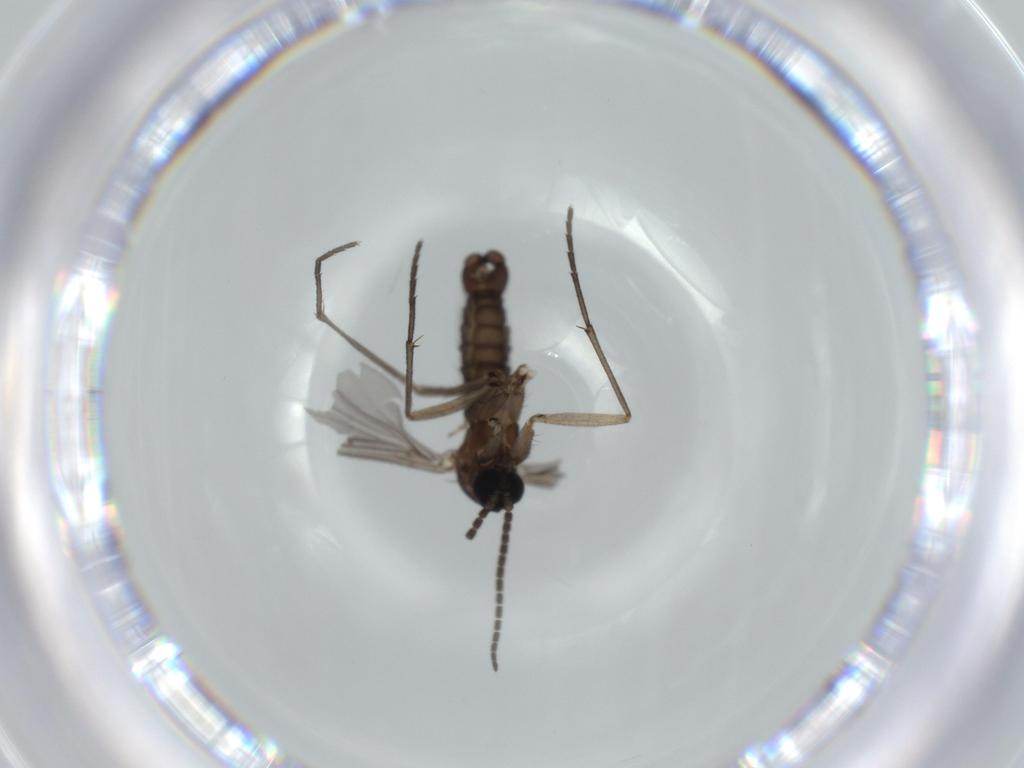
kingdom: Animalia
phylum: Arthropoda
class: Insecta
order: Diptera
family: Sciaridae
